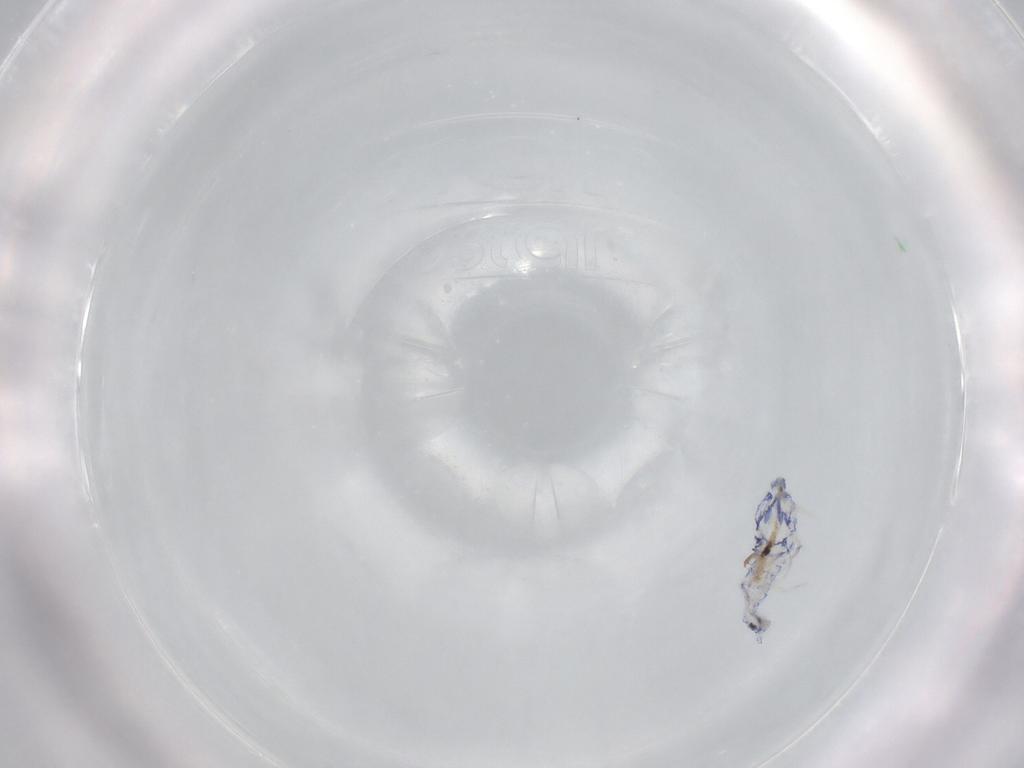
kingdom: Animalia
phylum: Arthropoda
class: Collembola
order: Entomobryomorpha
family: Entomobryidae
